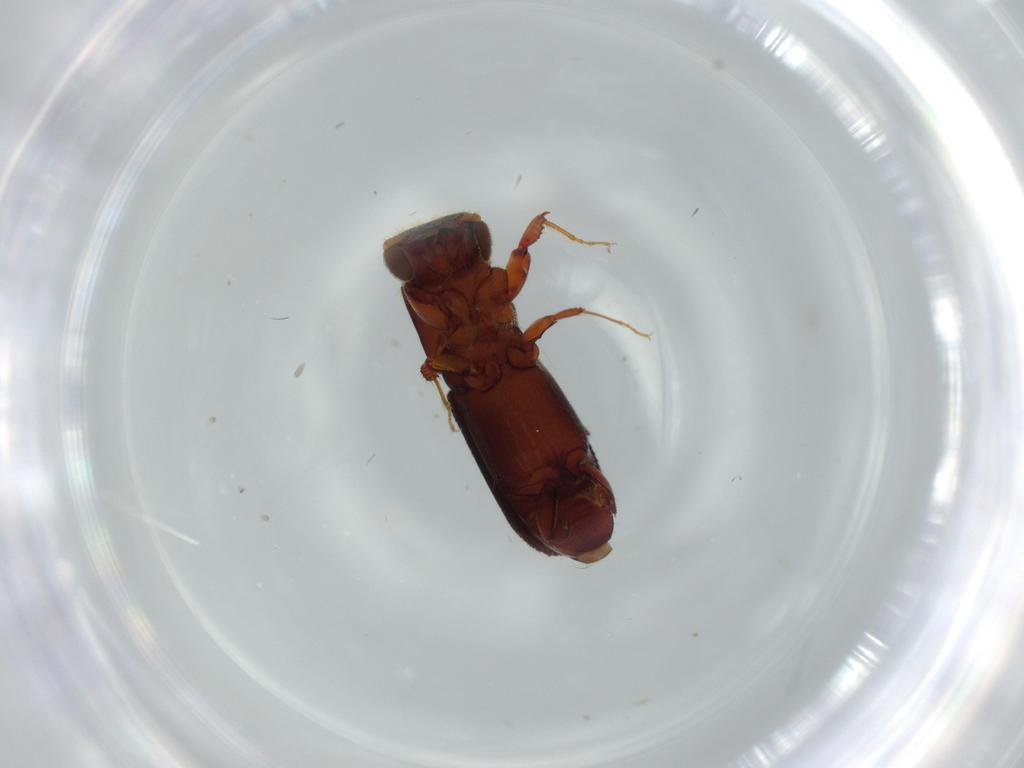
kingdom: Animalia
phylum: Arthropoda
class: Insecta
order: Coleoptera
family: Curculionidae
